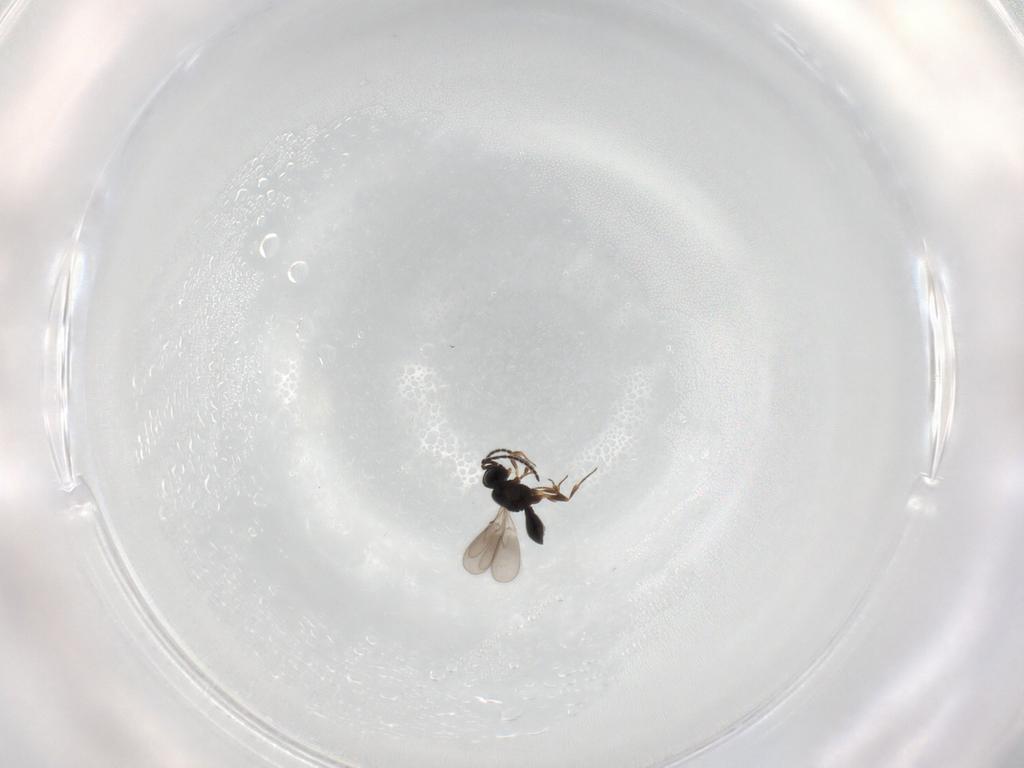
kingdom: Animalia
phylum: Arthropoda
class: Insecta
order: Hymenoptera
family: Scelionidae
